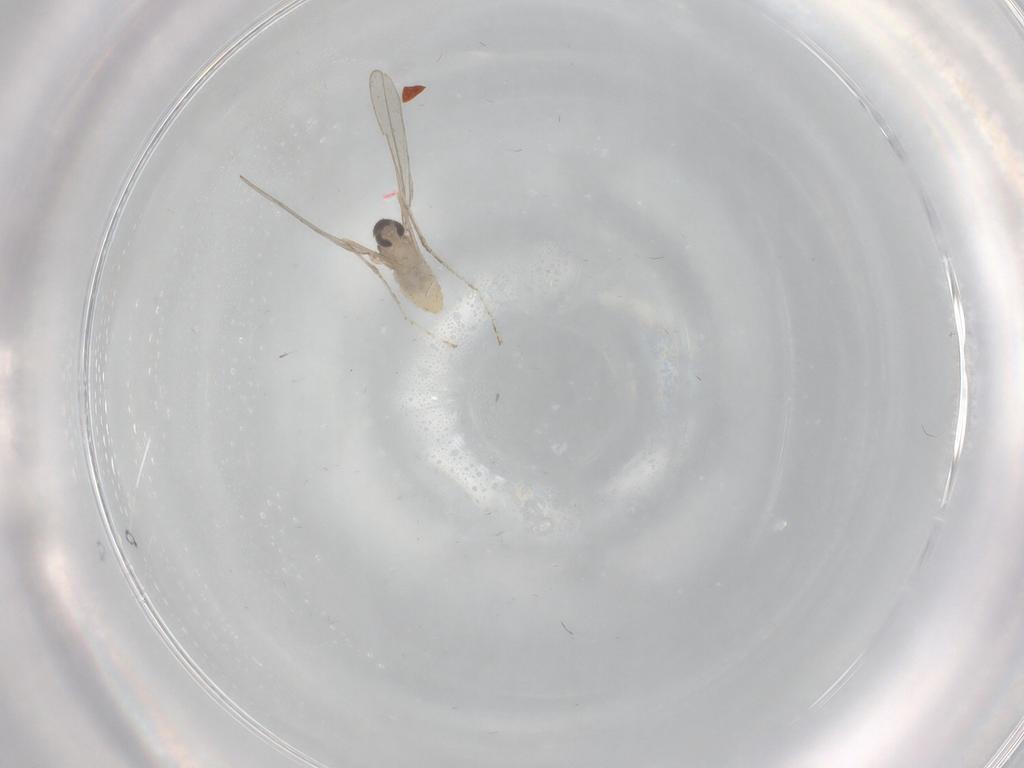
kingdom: Animalia
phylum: Arthropoda
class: Insecta
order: Diptera
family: Cecidomyiidae
